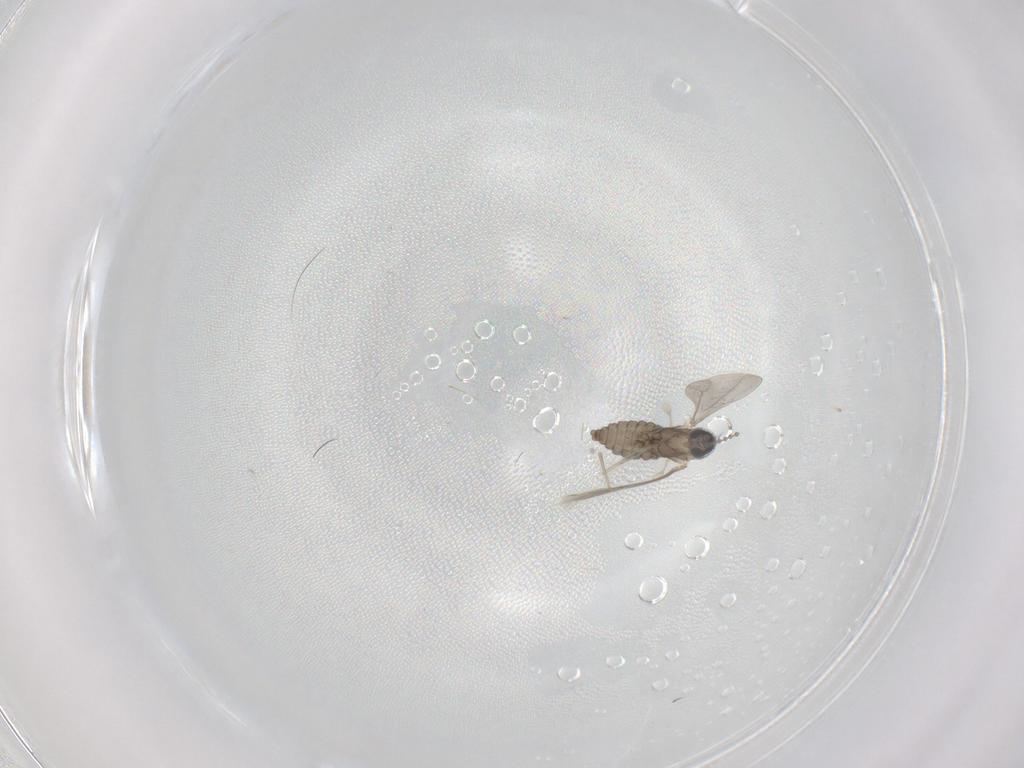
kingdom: Animalia
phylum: Arthropoda
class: Insecta
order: Diptera
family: Cecidomyiidae
